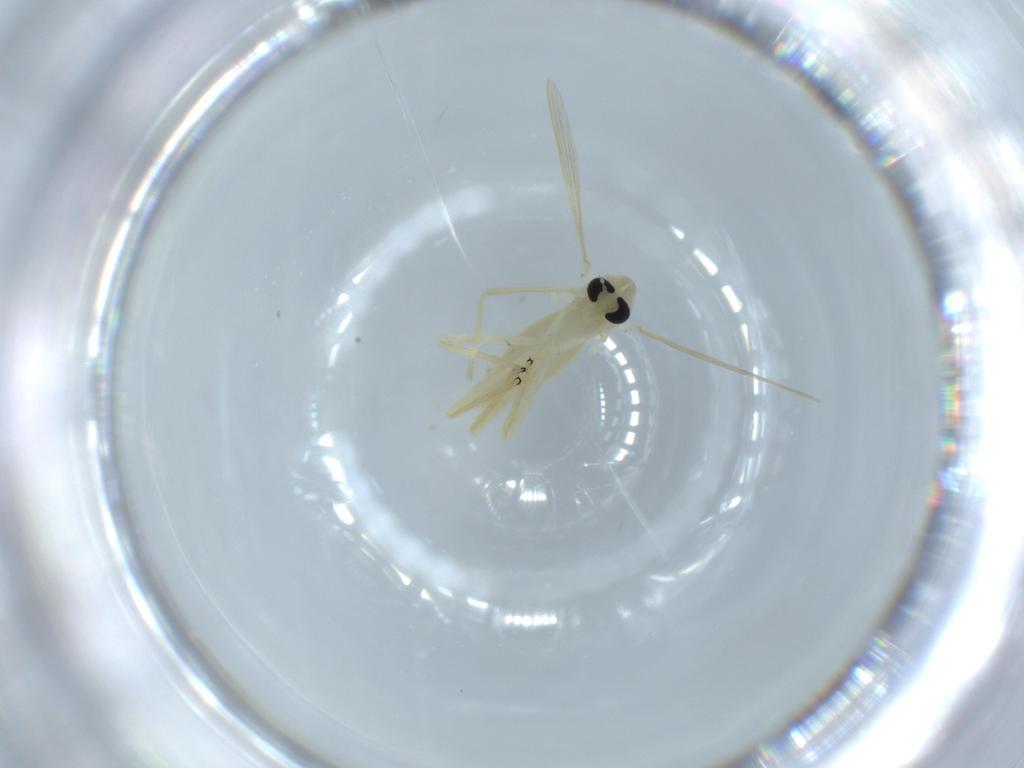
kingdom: Animalia
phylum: Arthropoda
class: Insecta
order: Diptera
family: Chironomidae
